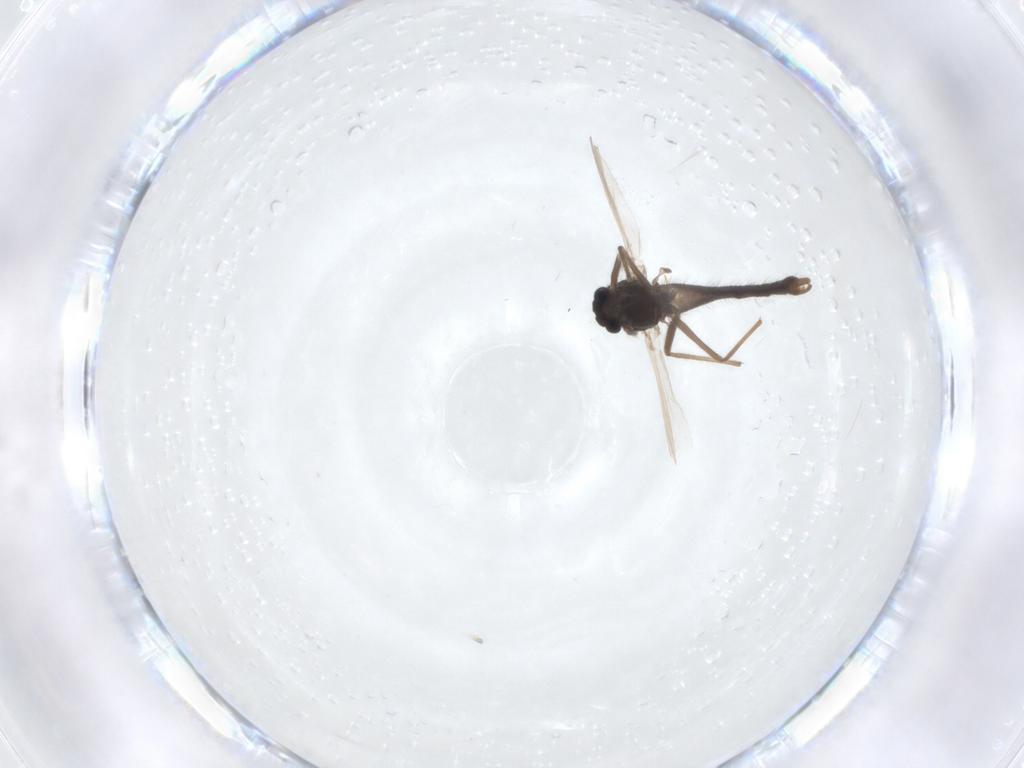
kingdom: Animalia
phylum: Arthropoda
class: Insecta
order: Diptera
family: Chironomidae
